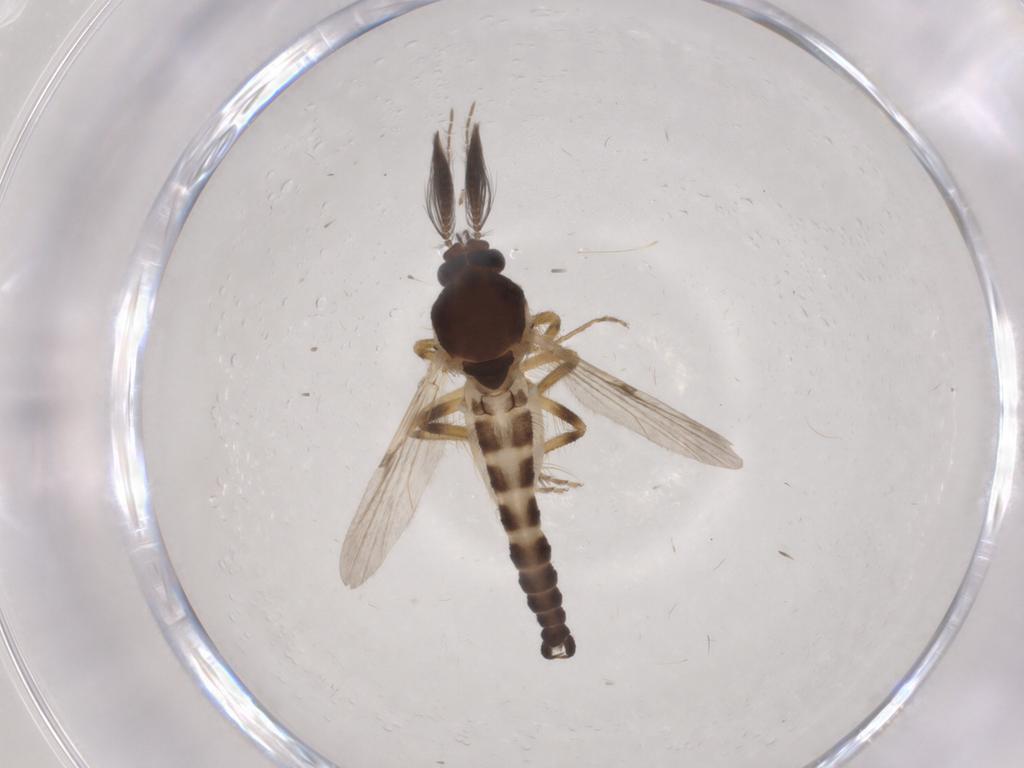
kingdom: Animalia
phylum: Arthropoda
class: Insecta
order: Diptera
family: Ceratopogonidae
